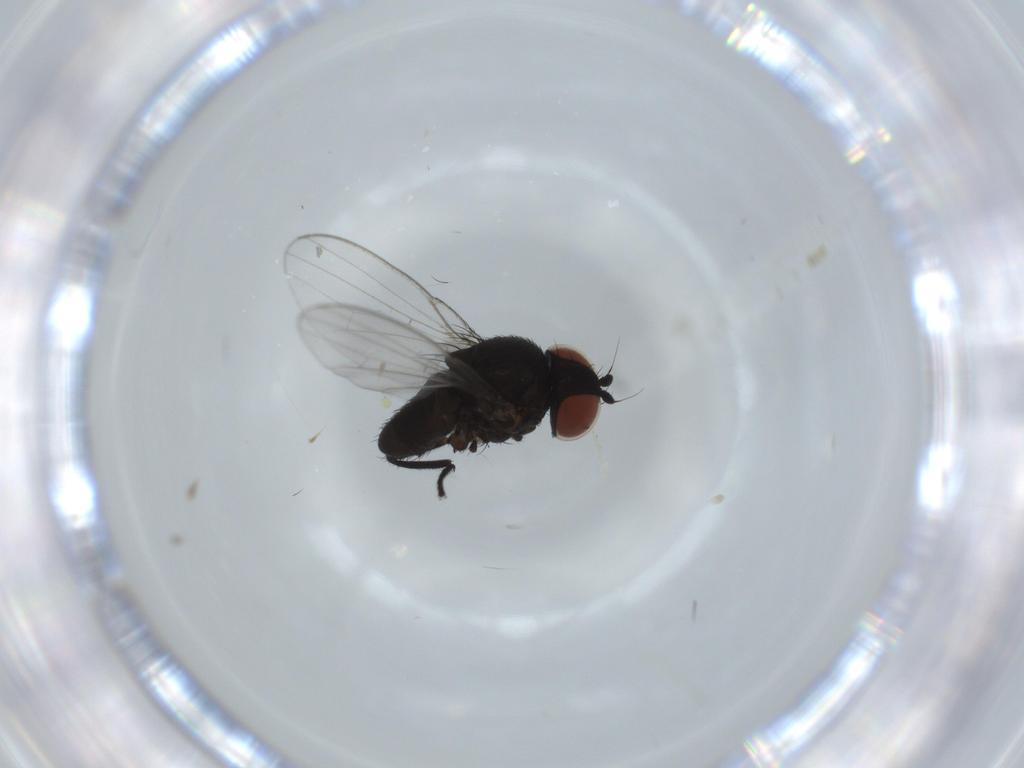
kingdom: Animalia
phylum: Arthropoda
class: Insecta
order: Diptera
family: Milichiidae
